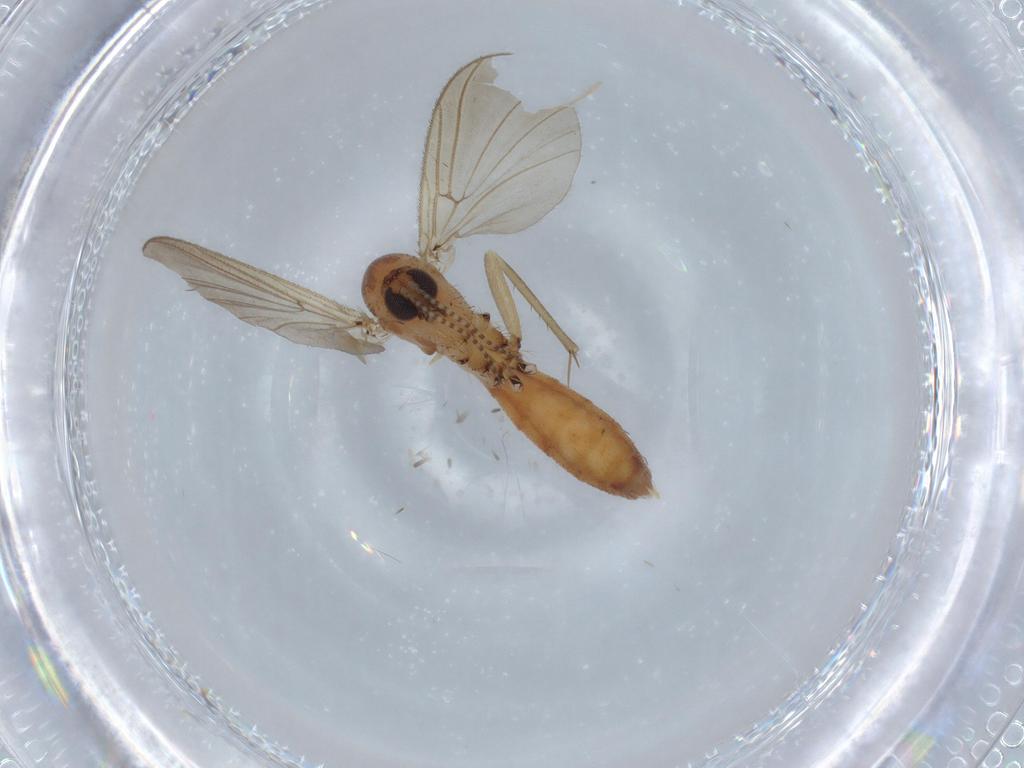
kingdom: Animalia
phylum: Arthropoda
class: Insecta
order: Diptera
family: Mycetophilidae
